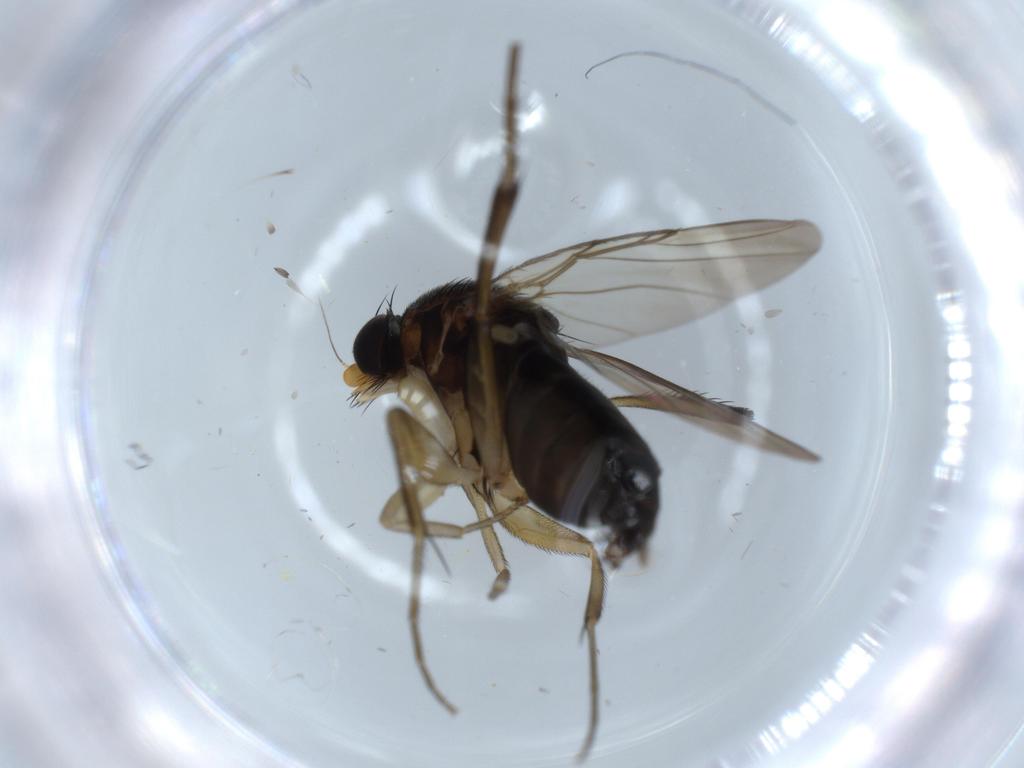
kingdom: Animalia
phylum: Arthropoda
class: Insecta
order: Diptera
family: Phoridae
